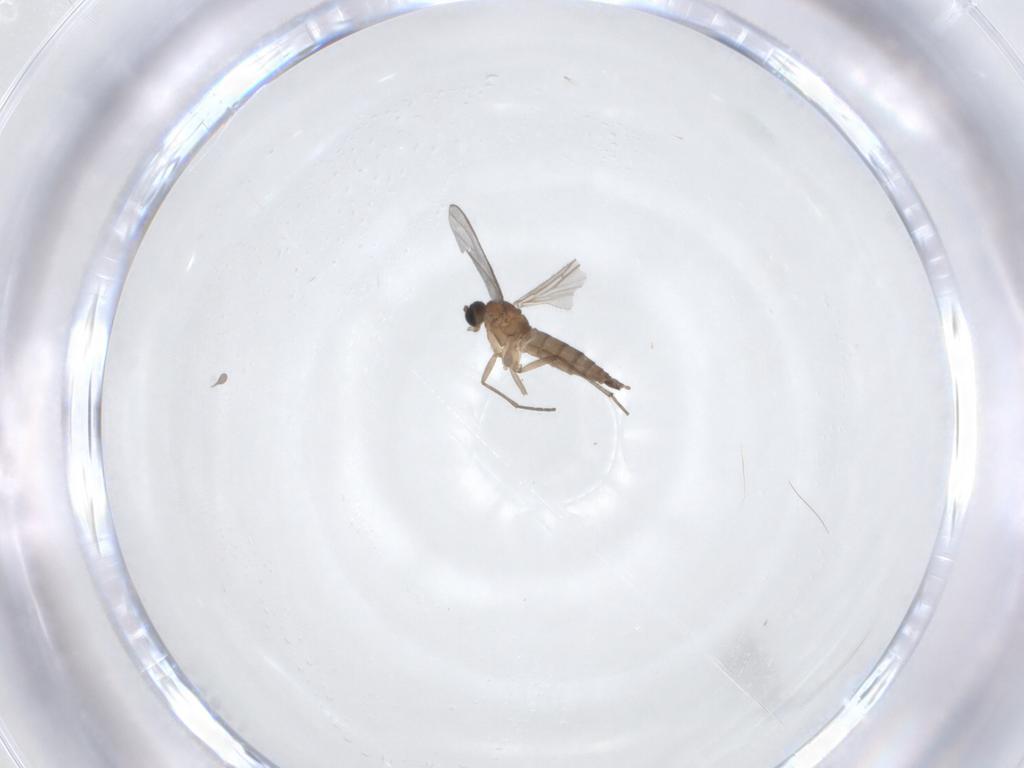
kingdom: Animalia
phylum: Arthropoda
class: Insecta
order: Diptera
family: Sciaridae
